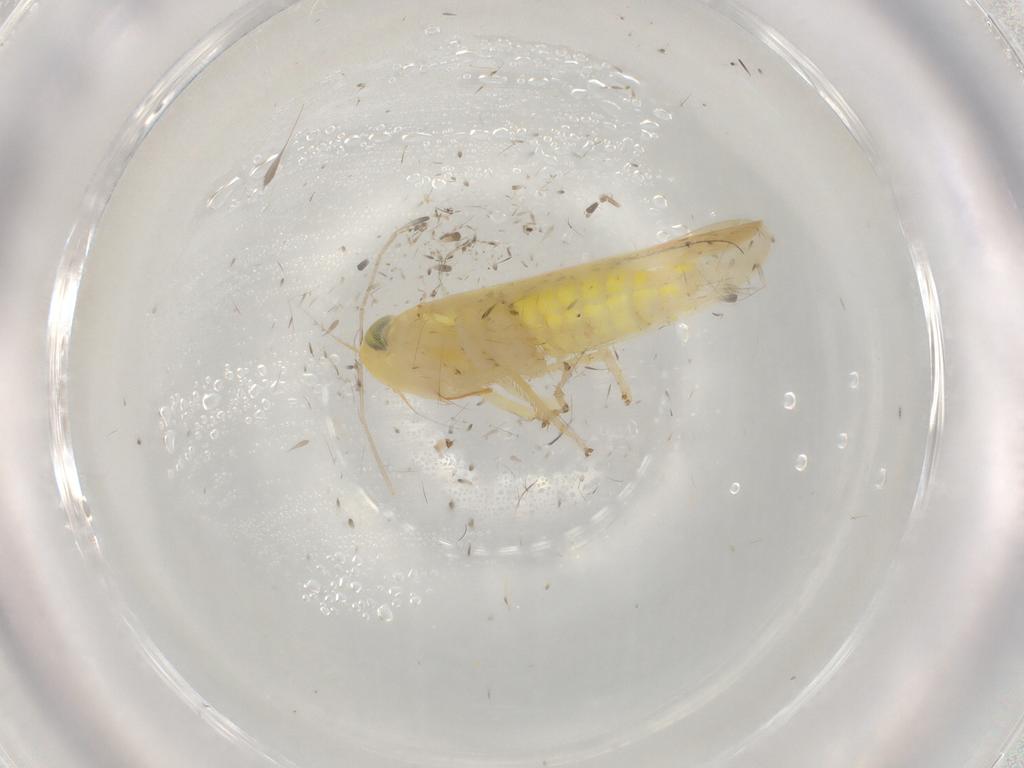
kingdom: Animalia
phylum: Arthropoda
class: Insecta
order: Hemiptera
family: Cicadellidae
